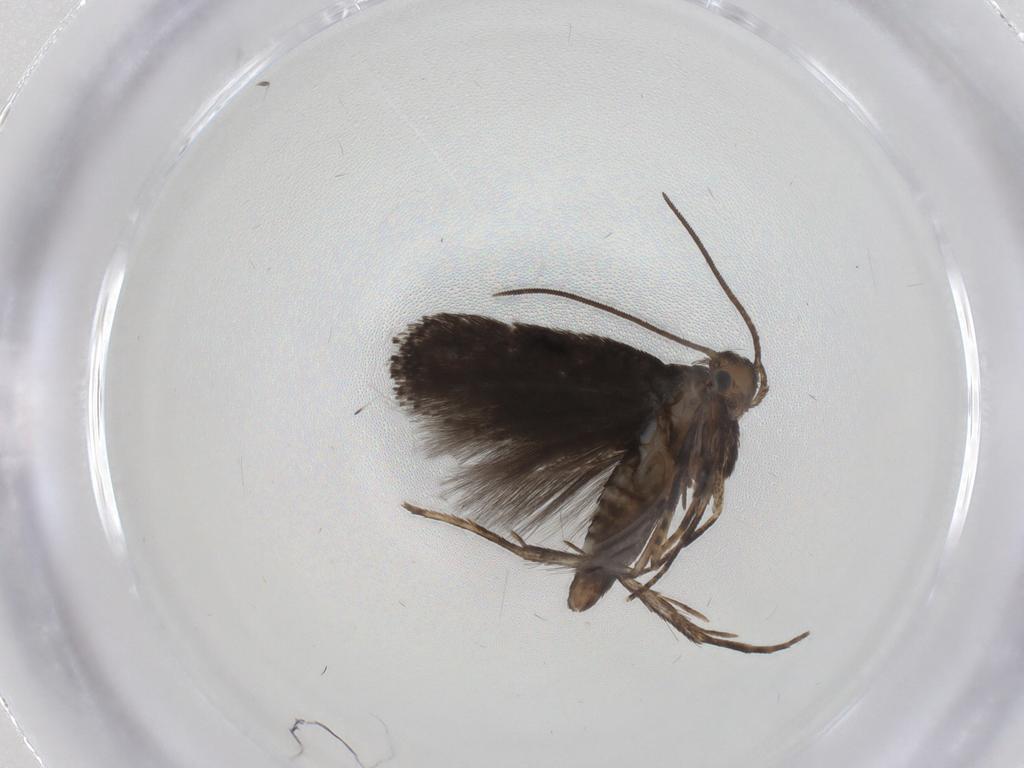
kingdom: Animalia
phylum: Arthropoda
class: Insecta
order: Lepidoptera
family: Pieridae
